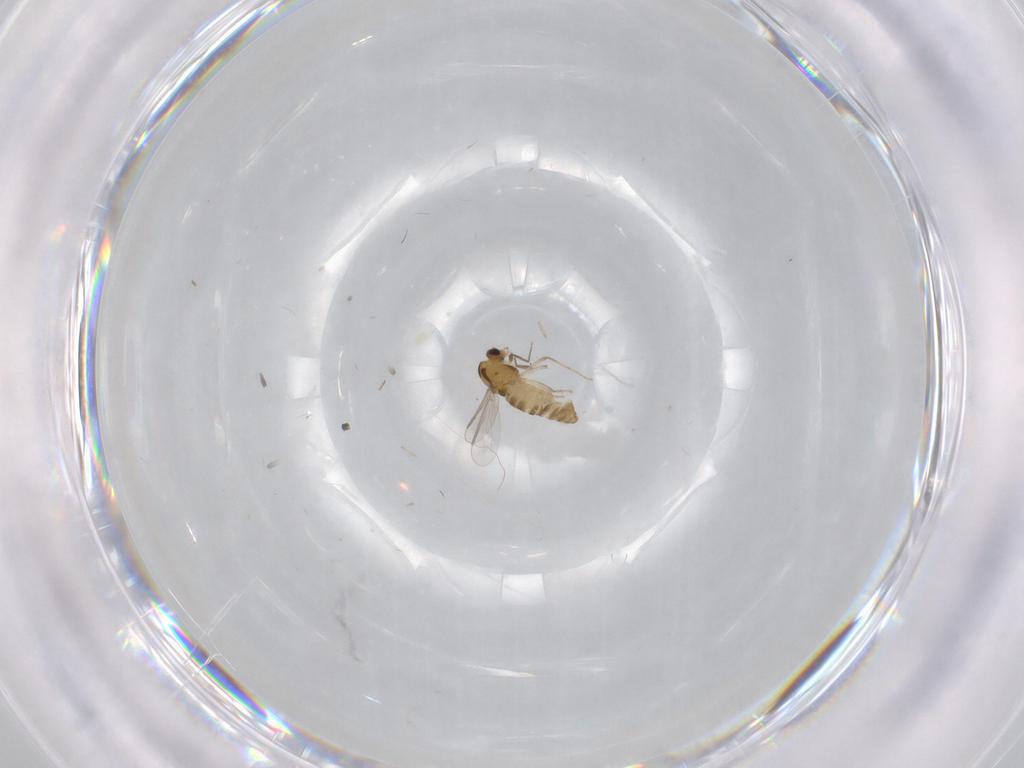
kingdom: Animalia
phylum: Arthropoda
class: Insecta
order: Diptera
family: Chironomidae
